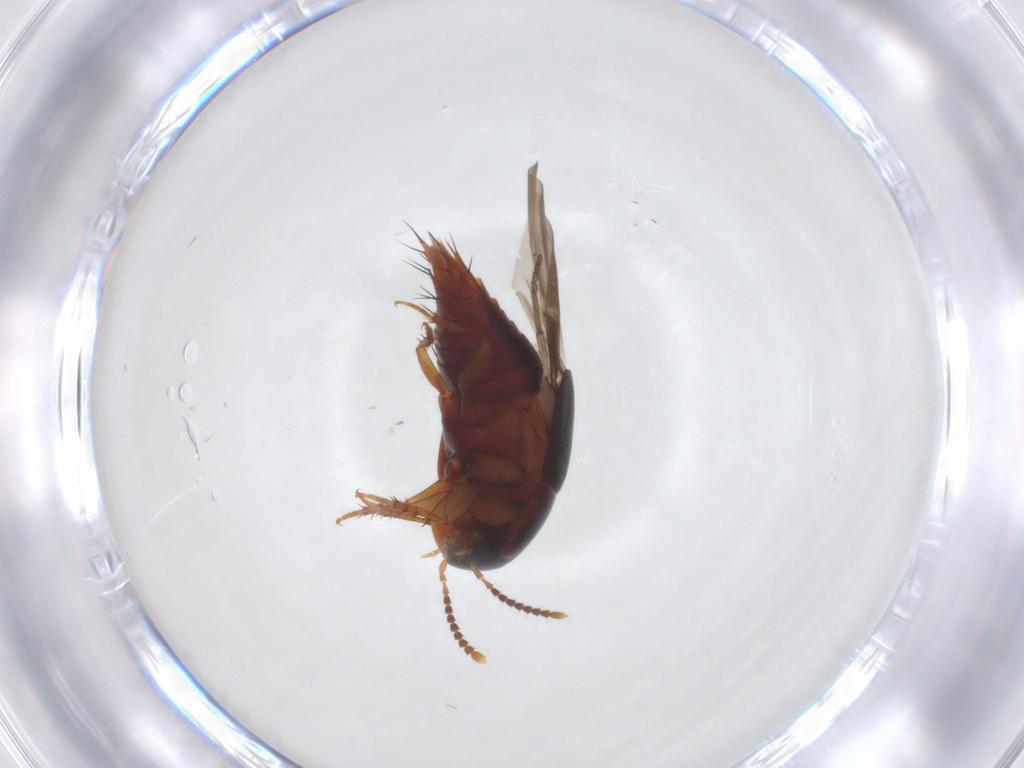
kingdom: Animalia
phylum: Arthropoda
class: Insecta
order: Coleoptera
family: Staphylinidae
